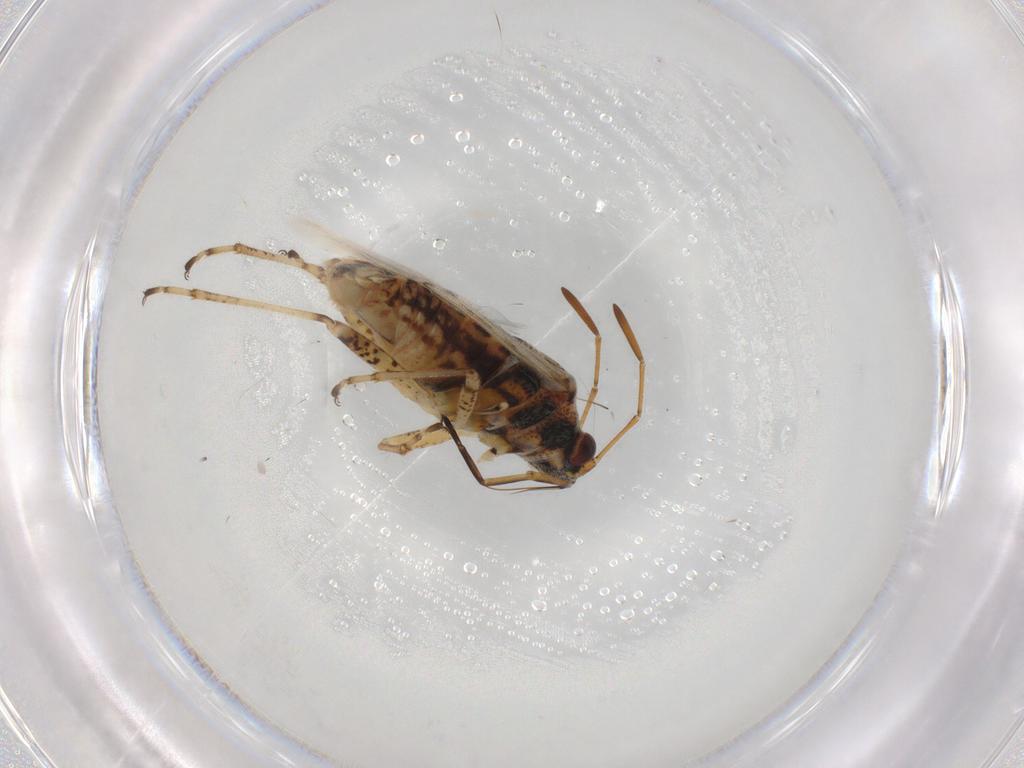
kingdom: Animalia
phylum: Arthropoda
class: Insecta
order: Hemiptera
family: Lygaeidae
